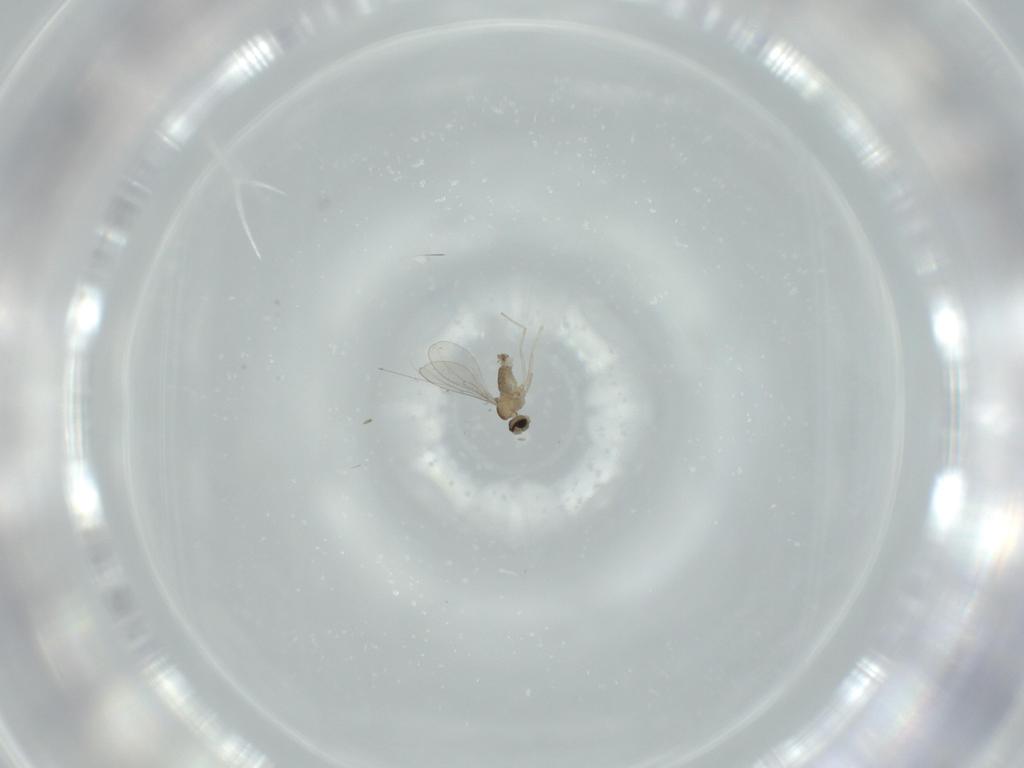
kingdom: Animalia
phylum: Arthropoda
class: Insecta
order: Diptera
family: Cecidomyiidae
